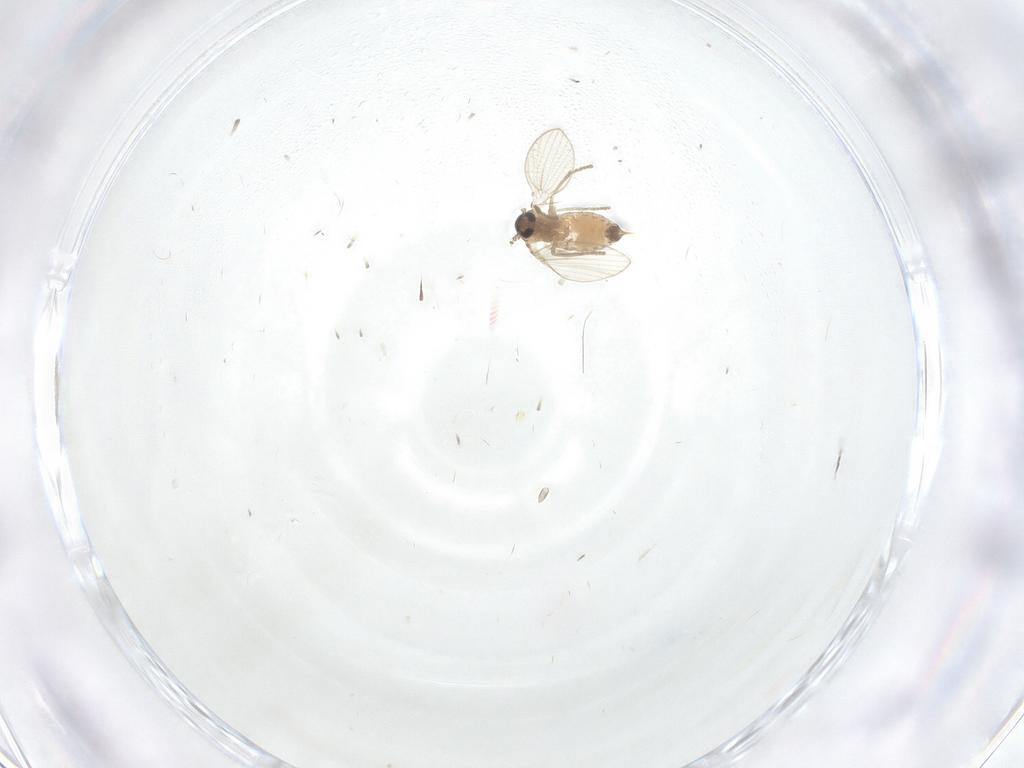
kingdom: Animalia
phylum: Arthropoda
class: Insecta
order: Diptera
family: Psychodidae
